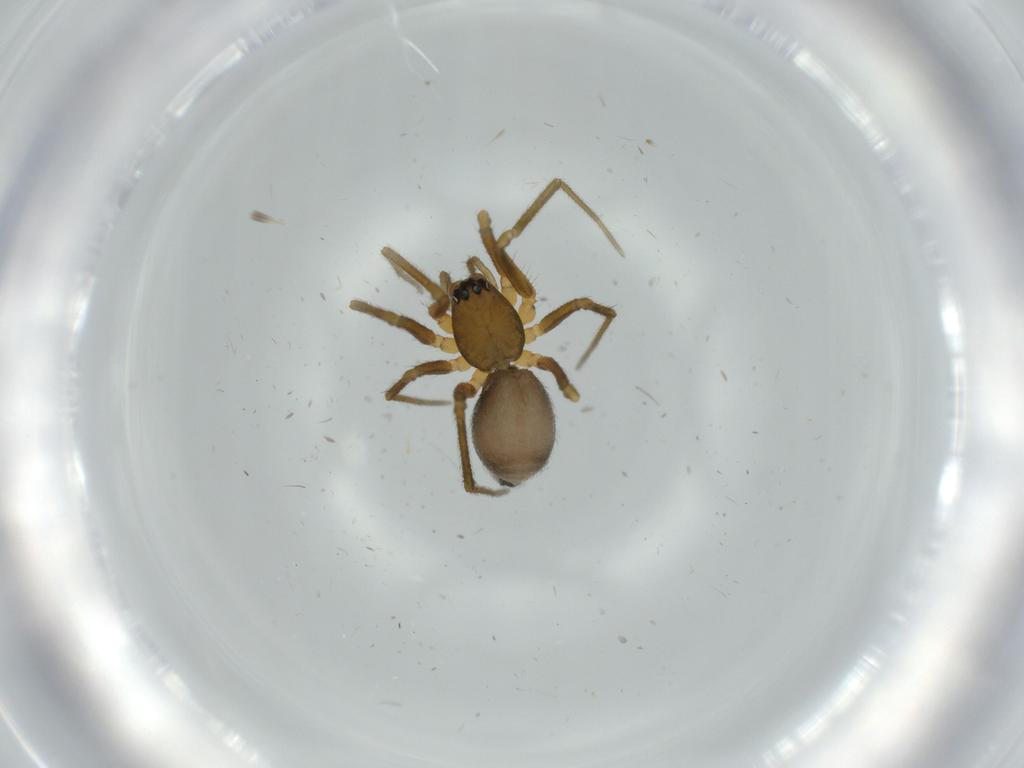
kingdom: Animalia
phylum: Arthropoda
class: Arachnida
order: Araneae
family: Linyphiidae
